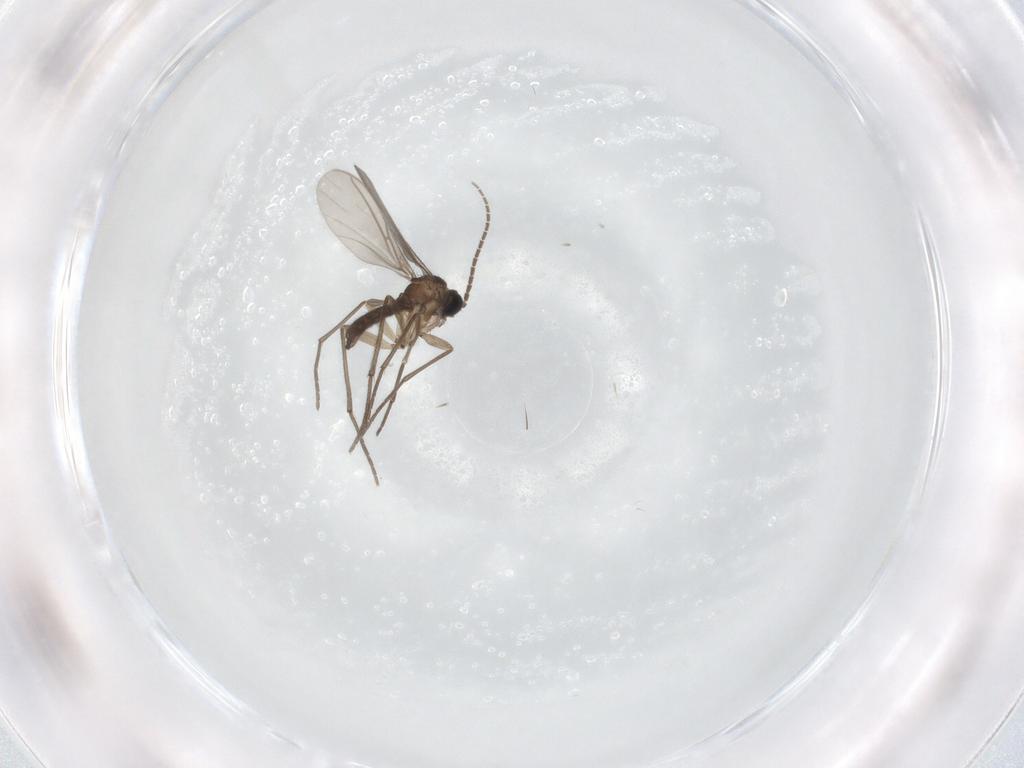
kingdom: Animalia
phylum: Arthropoda
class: Insecta
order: Diptera
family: Sciaridae
